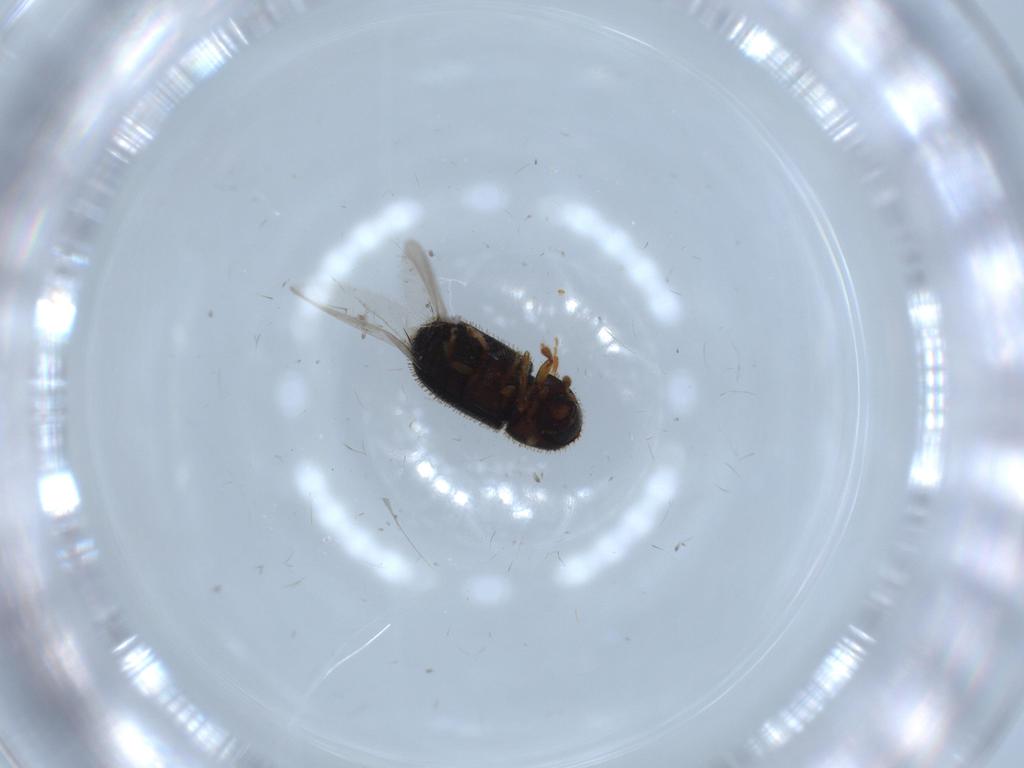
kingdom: Animalia
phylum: Arthropoda
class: Insecta
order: Coleoptera
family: Curculionidae
